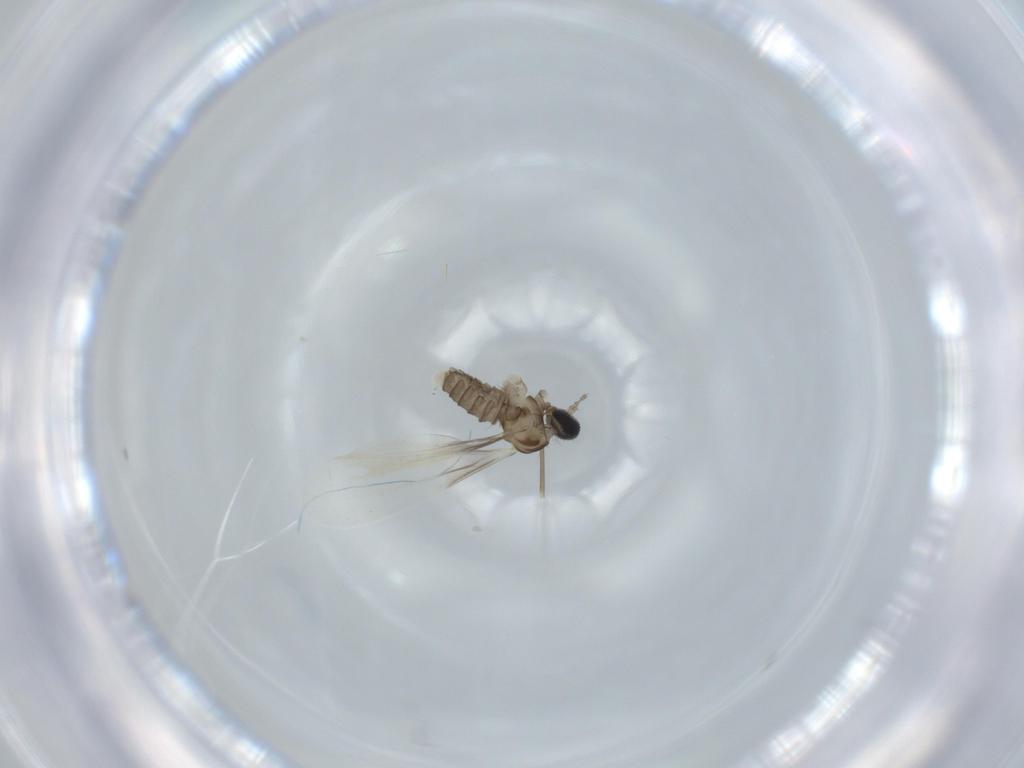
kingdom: Animalia
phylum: Arthropoda
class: Insecta
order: Diptera
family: Cecidomyiidae
